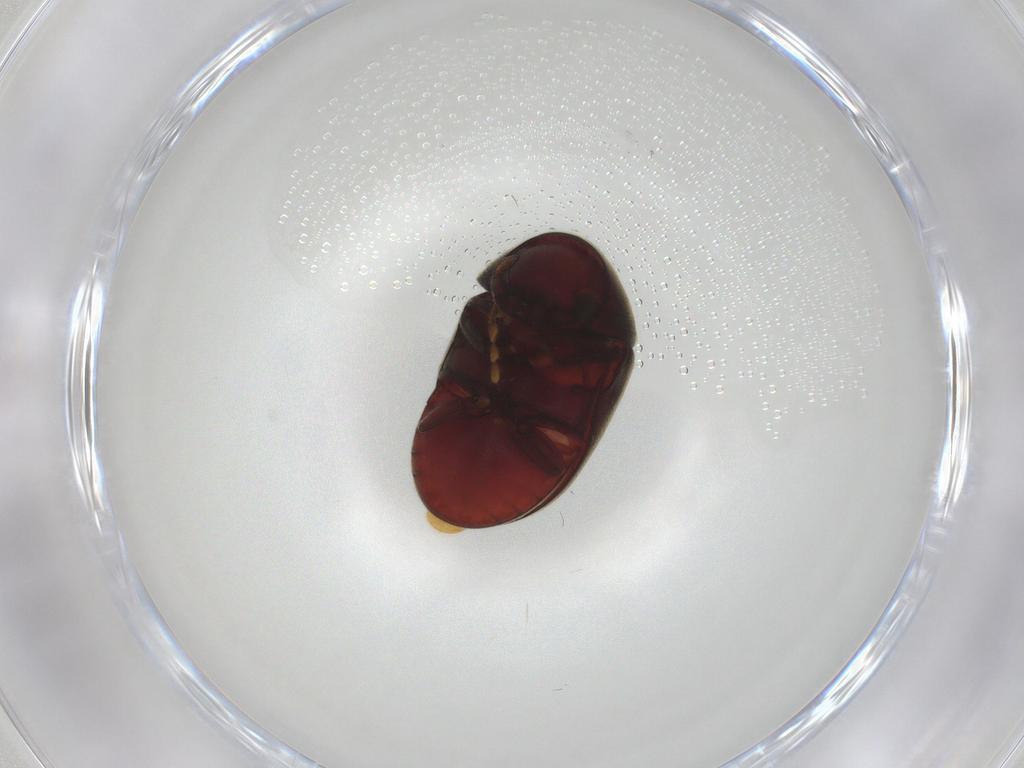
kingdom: Animalia
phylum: Arthropoda
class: Insecta
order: Coleoptera
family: Ptinidae
